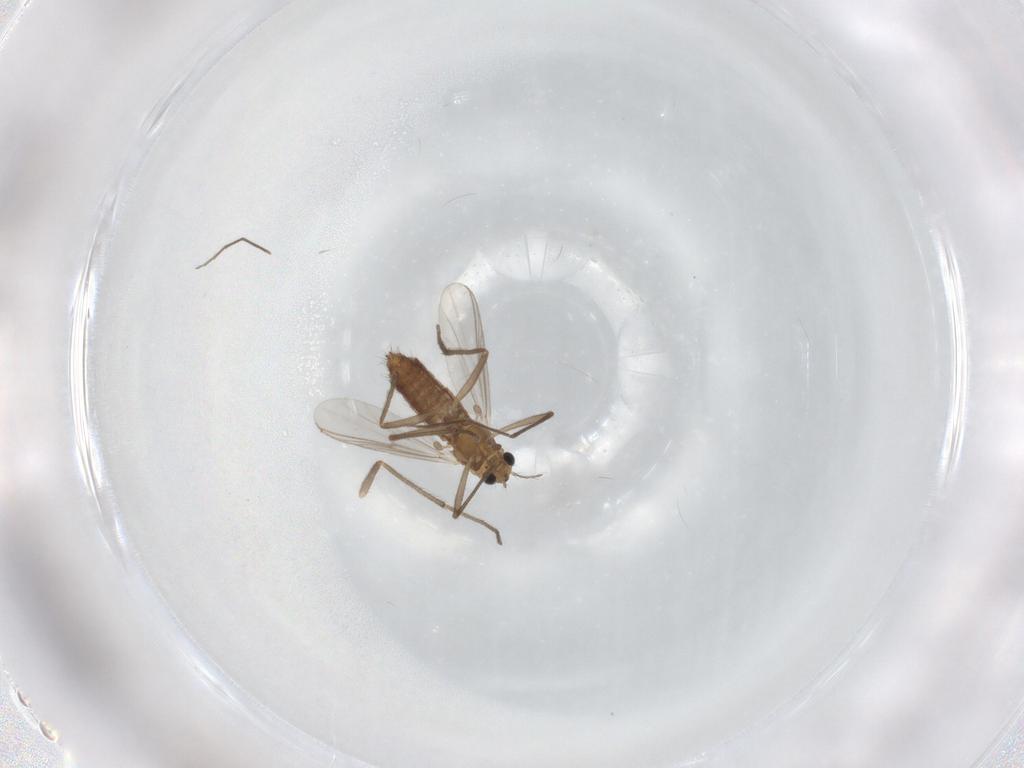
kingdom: Animalia
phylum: Arthropoda
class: Insecta
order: Diptera
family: Chironomidae
